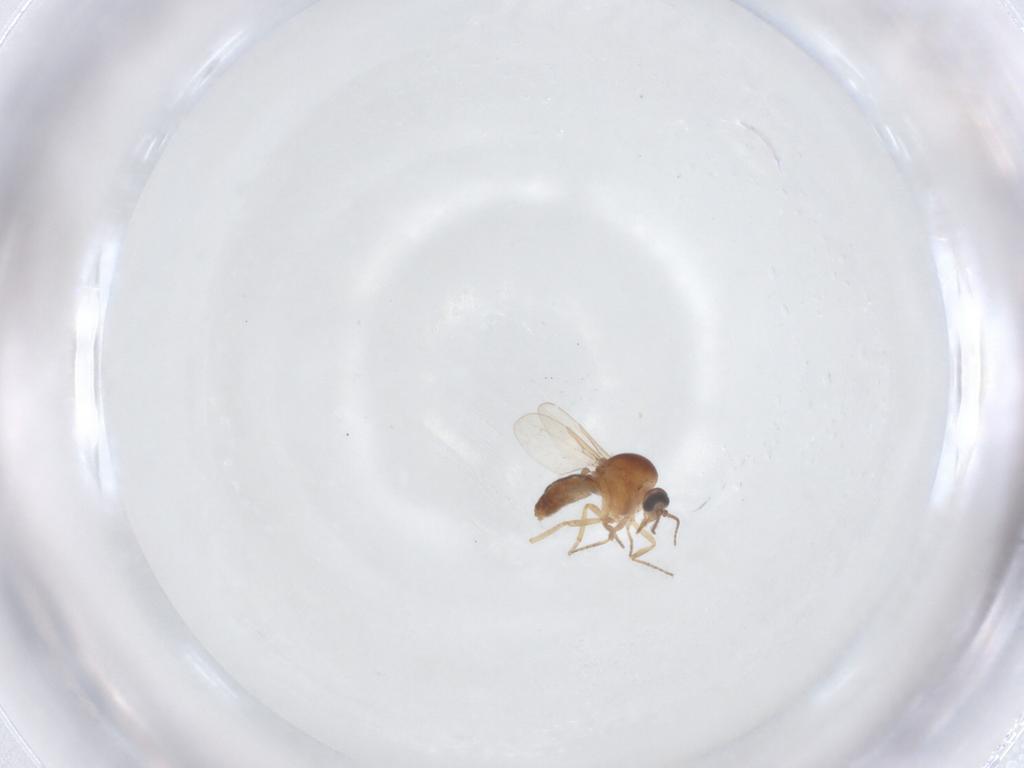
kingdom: Animalia
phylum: Arthropoda
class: Insecta
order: Diptera
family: Ceratopogonidae
